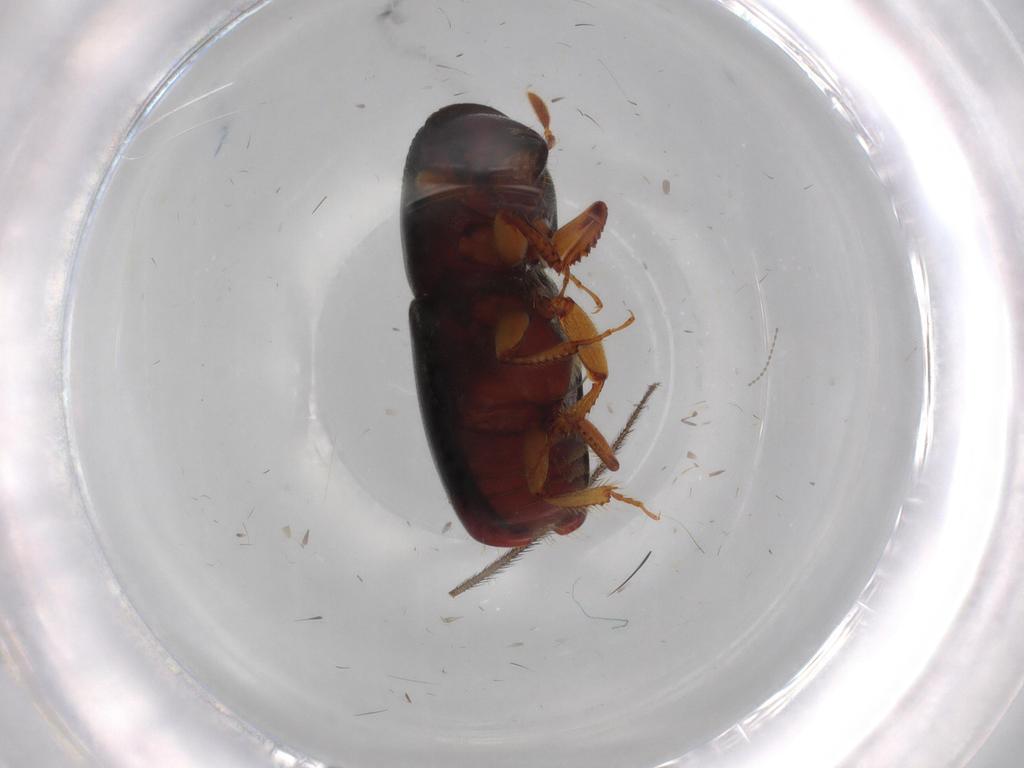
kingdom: Animalia
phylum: Arthropoda
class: Insecta
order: Coleoptera
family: Curculionidae
